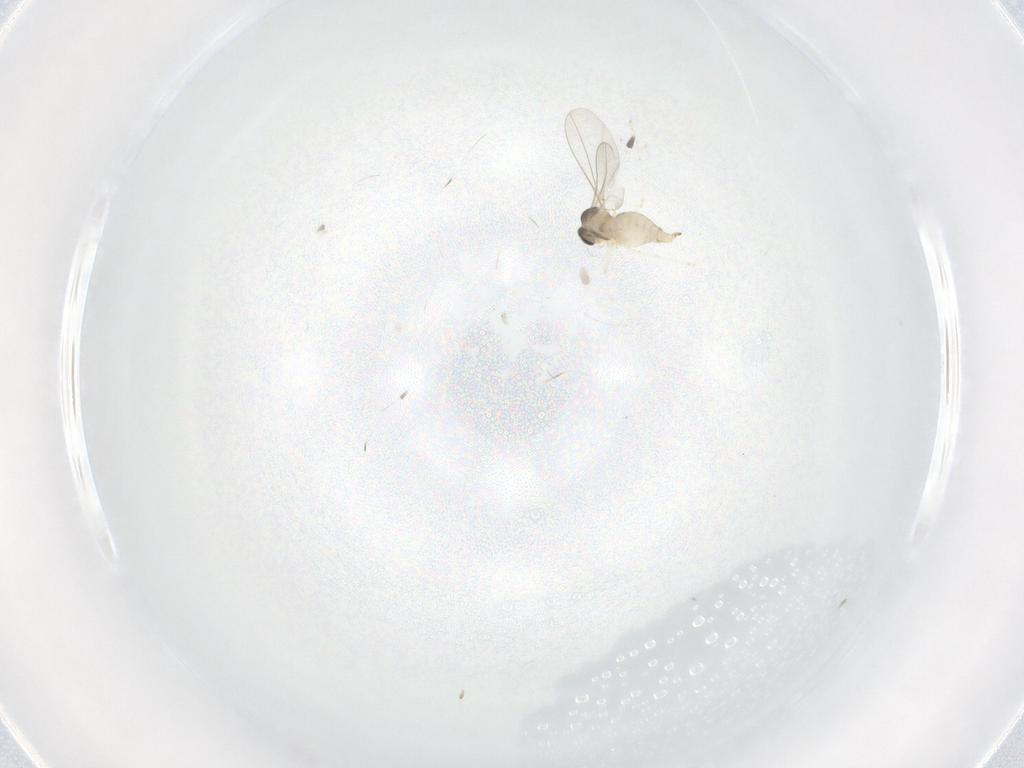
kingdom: Animalia
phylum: Arthropoda
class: Insecta
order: Diptera
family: Cecidomyiidae
